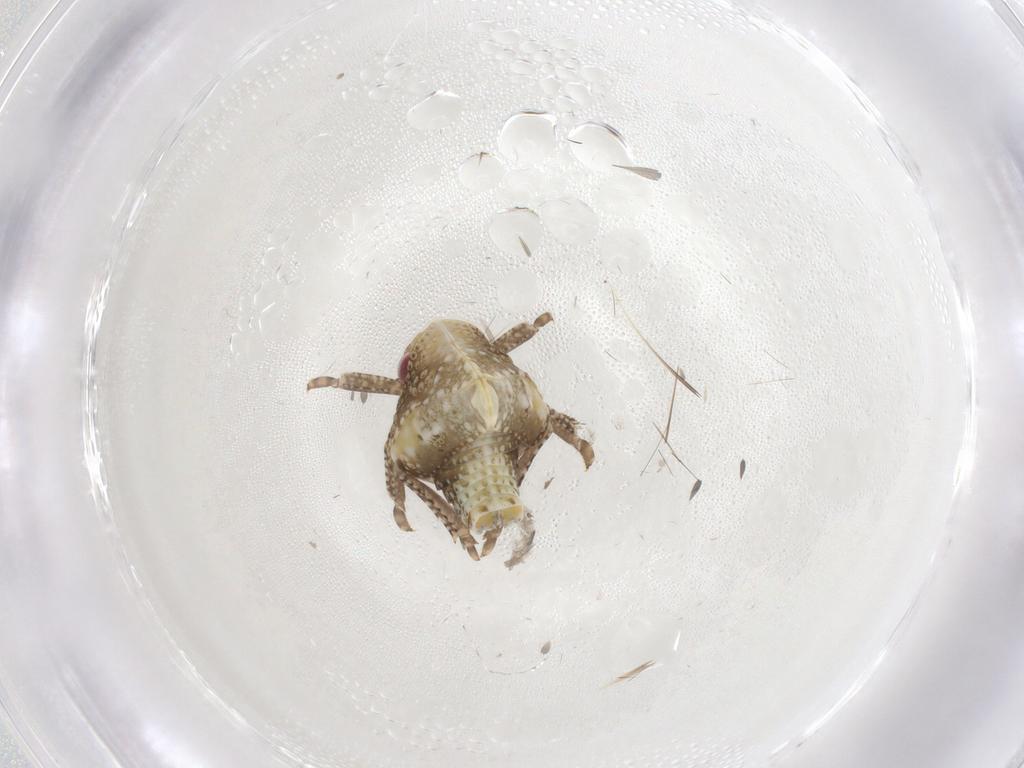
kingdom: Animalia
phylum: Arthropoda
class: Insecta
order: Hemiptera
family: Acanaloniidae
